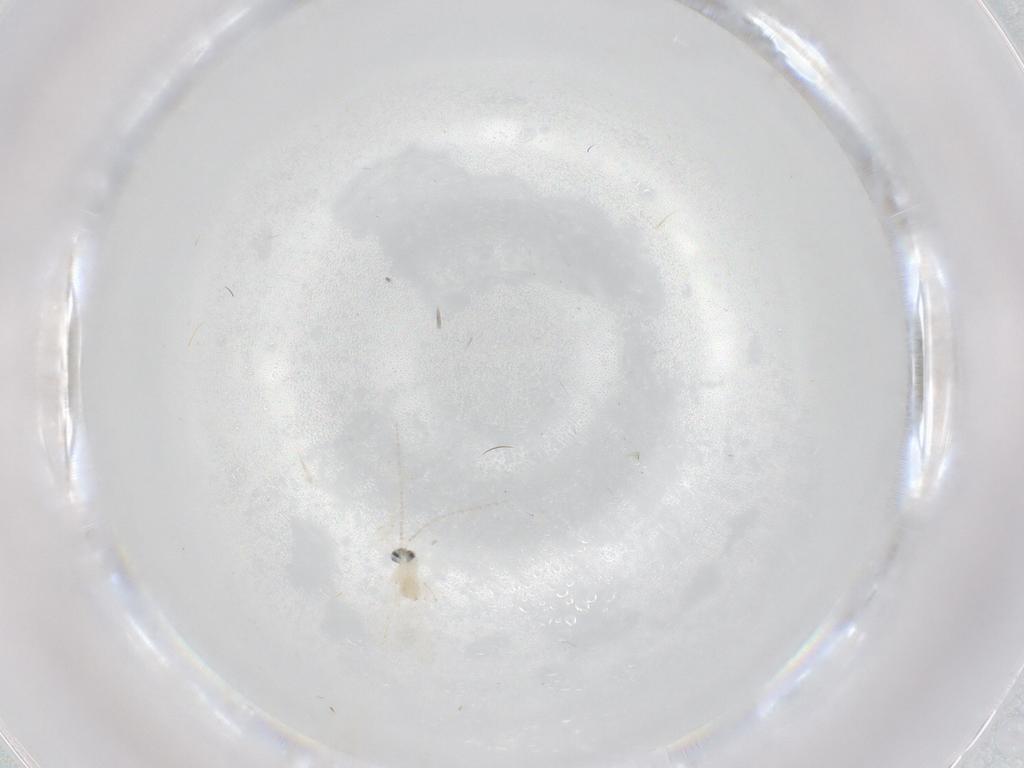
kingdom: Animalia
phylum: Arthropoda
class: Insecta
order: Diptera
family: Cecidomyiidae
